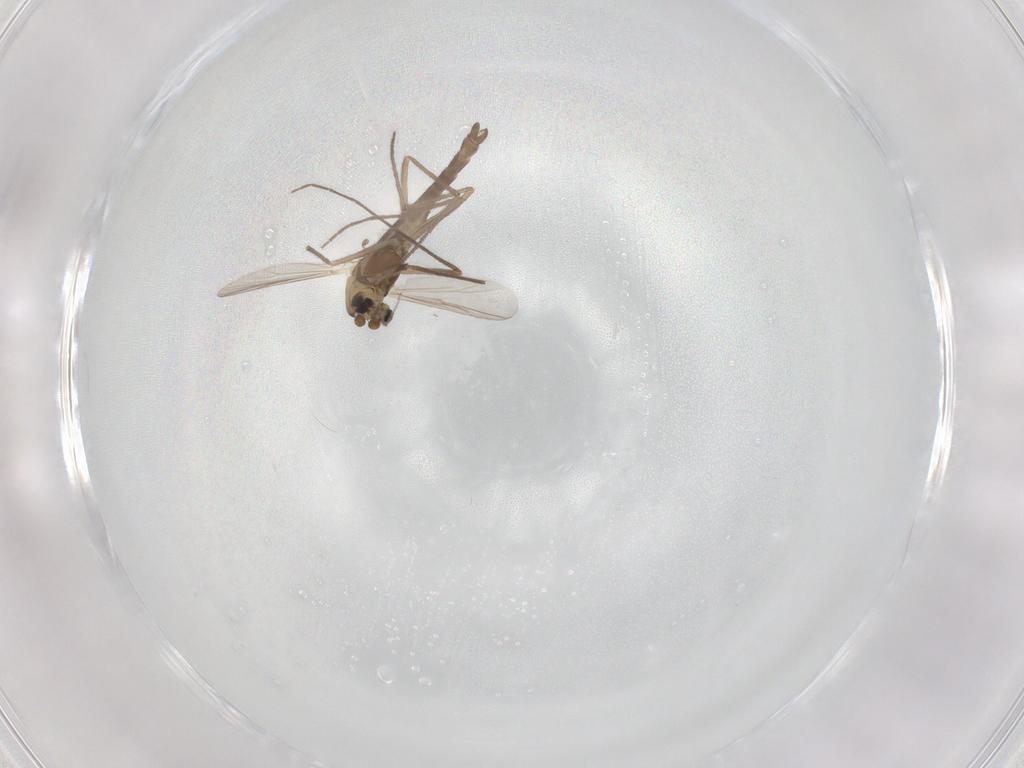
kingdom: Animalia
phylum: Arthropoda
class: Insecta
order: Diptera
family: Chironomidae
